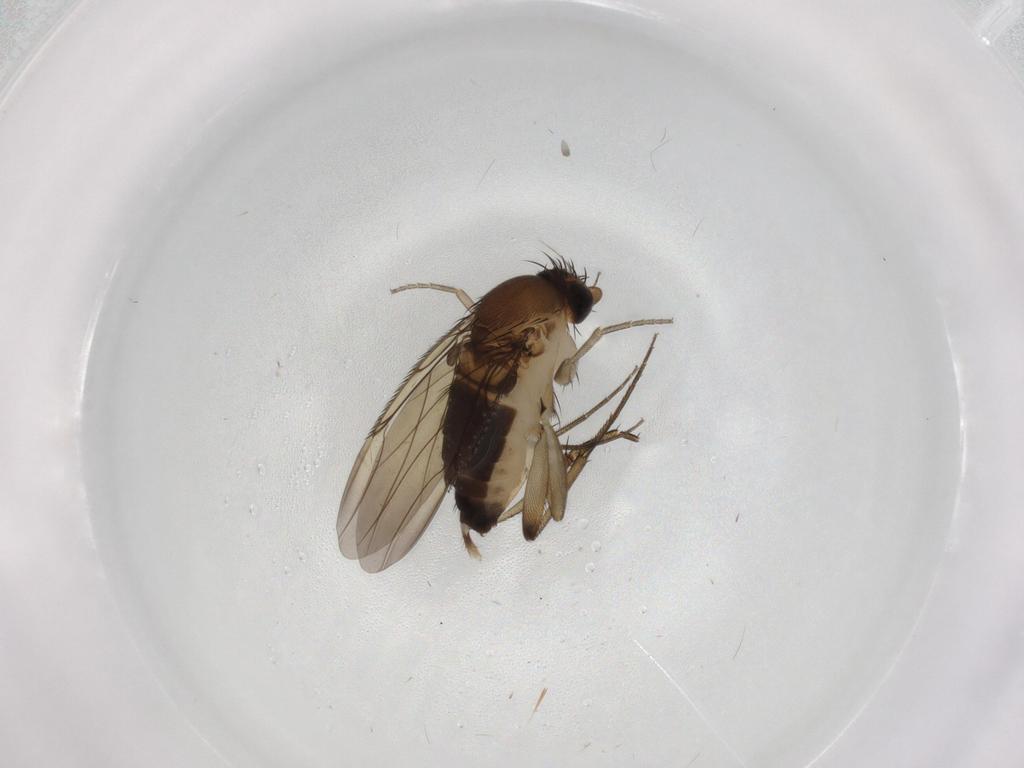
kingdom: Animalia
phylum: Arthropoda
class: Insecta
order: Diptera
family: Phoridae
